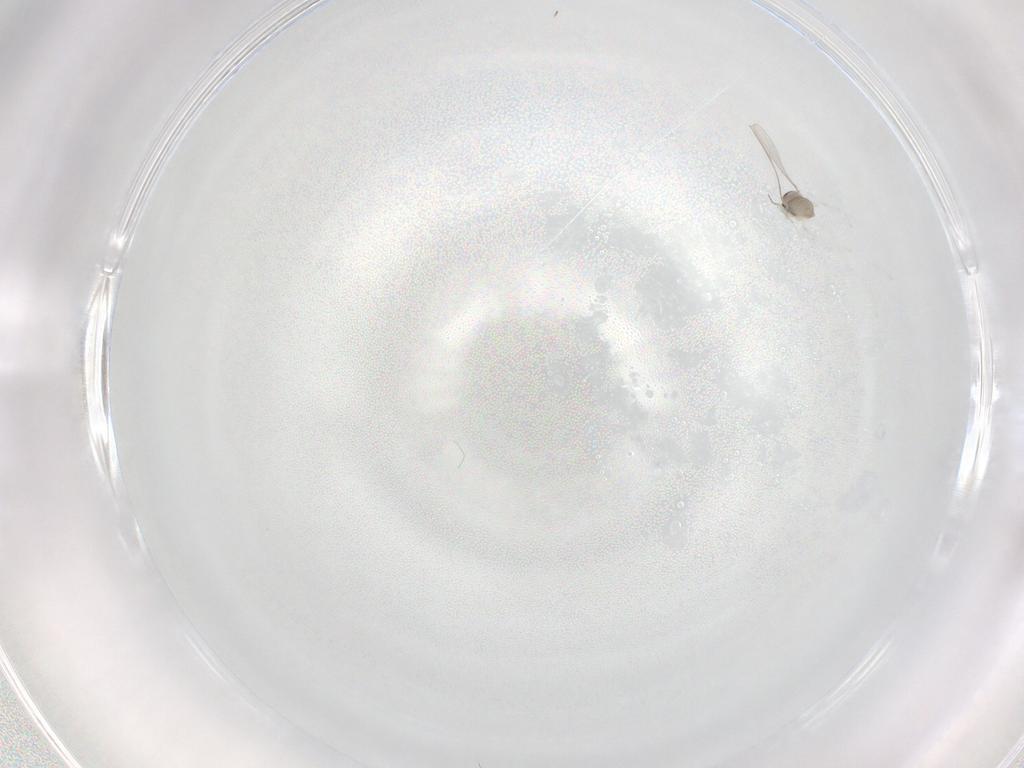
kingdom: Animalia
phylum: Arthropoda
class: Insecta
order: Diptera
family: Cecidomyiidae
